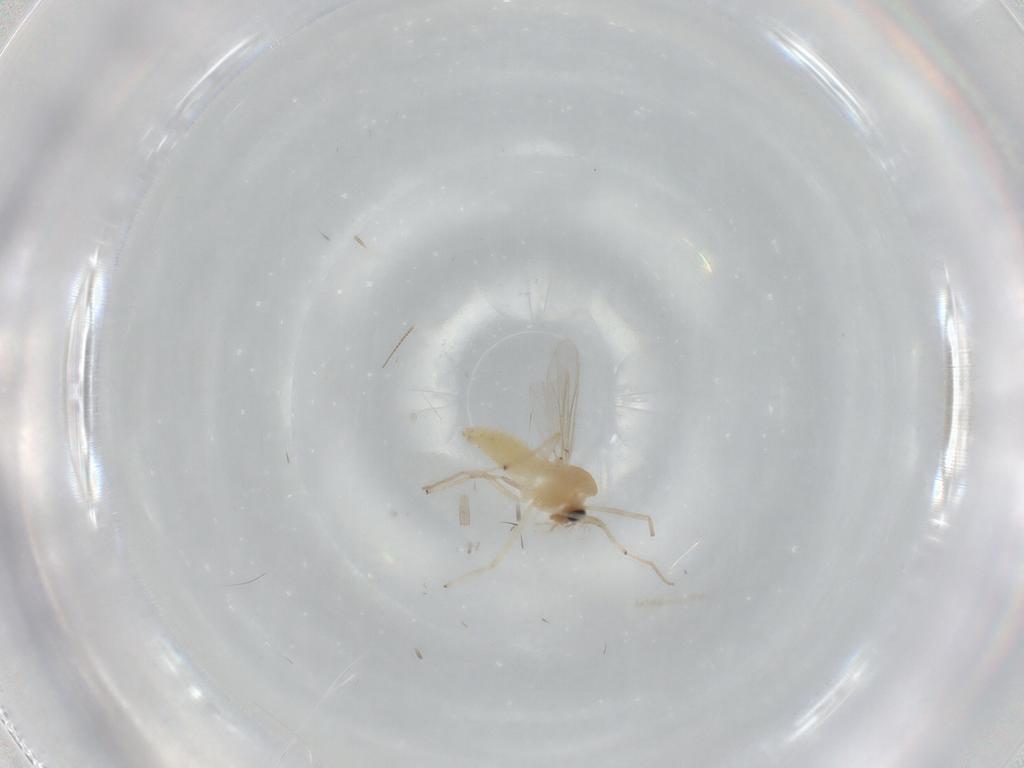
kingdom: Animalia
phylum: Arthropoda
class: Insecta
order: Diptera
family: Chironomidae
